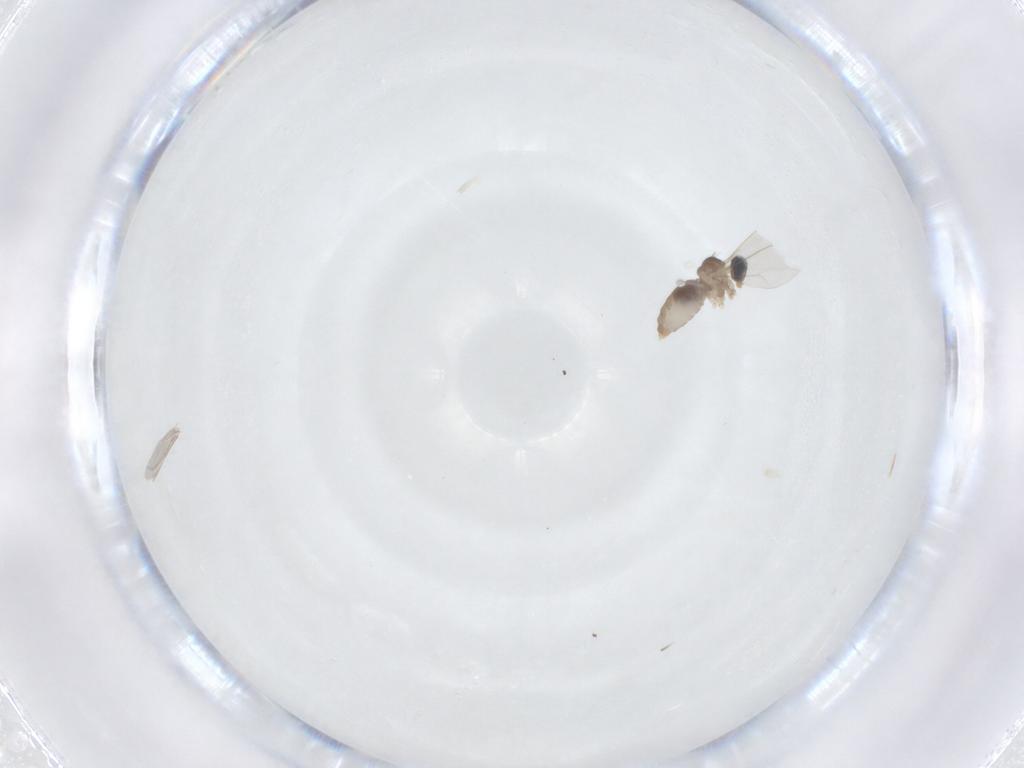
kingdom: Animalia
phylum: Arthropoda
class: Insecta
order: Diptera
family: Cecidomyiidae
